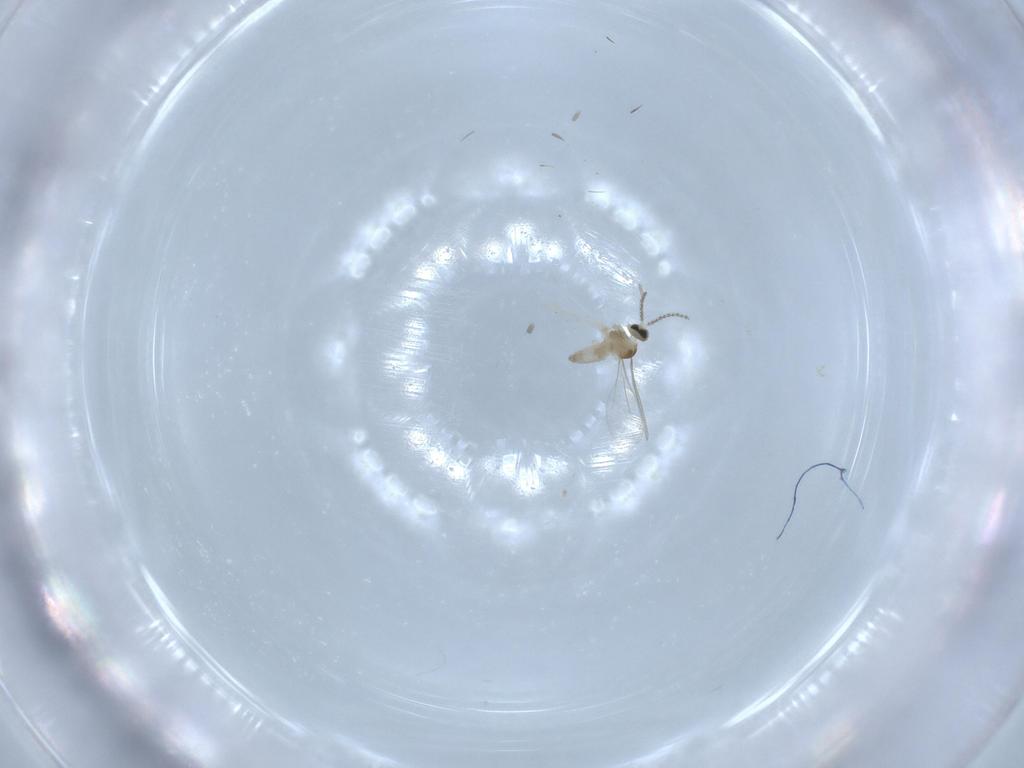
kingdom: Animalia
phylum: Arthropoda
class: Insecta
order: Diptera
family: Cecidomyiidae
